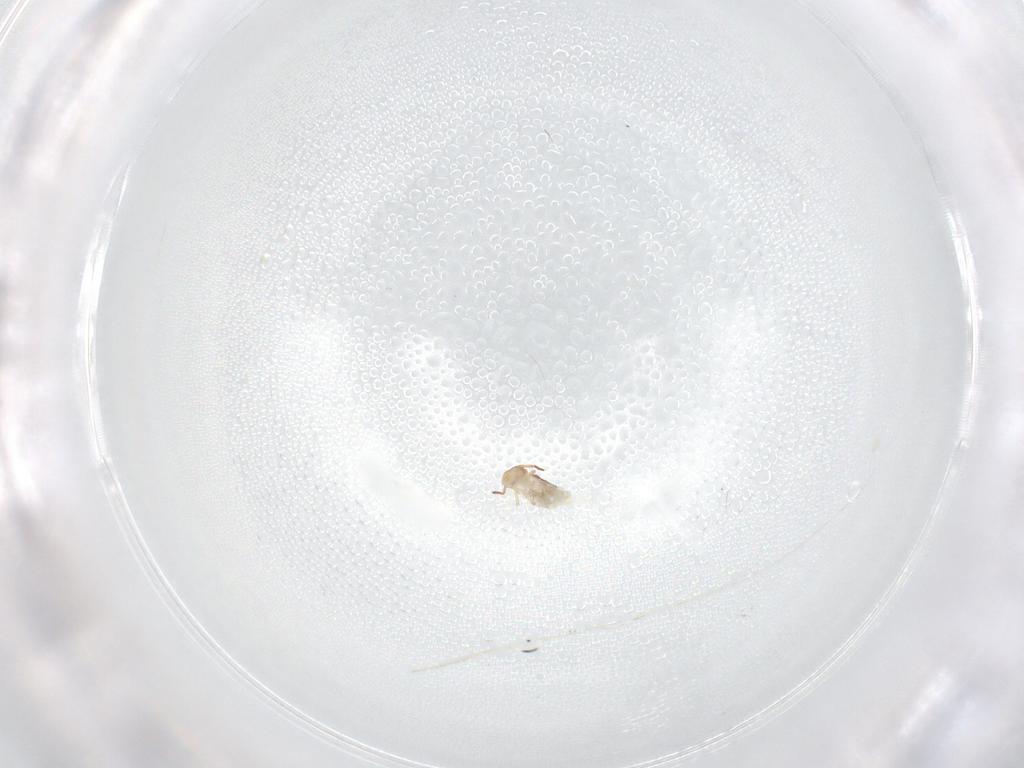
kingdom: Animalia
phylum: Arthropoda
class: Collembola
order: Symphypleona
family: Bourletiellidae
